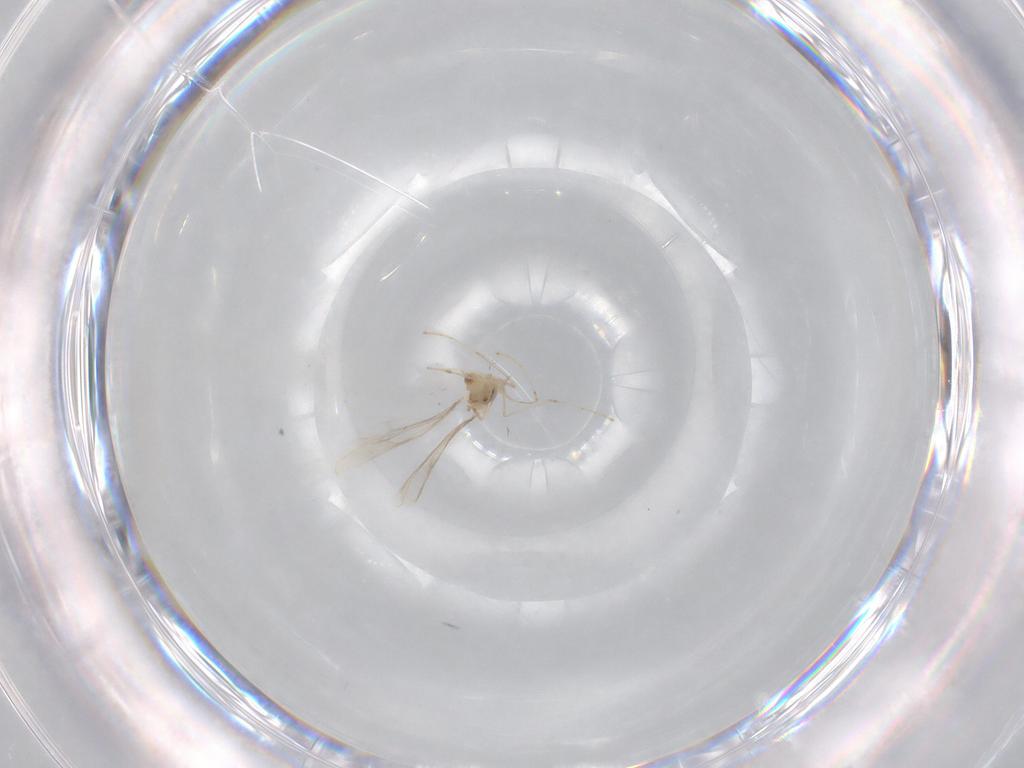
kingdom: Animalia
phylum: Arthropoda
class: Insecta
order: Diptera
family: Cecidomyiidae
